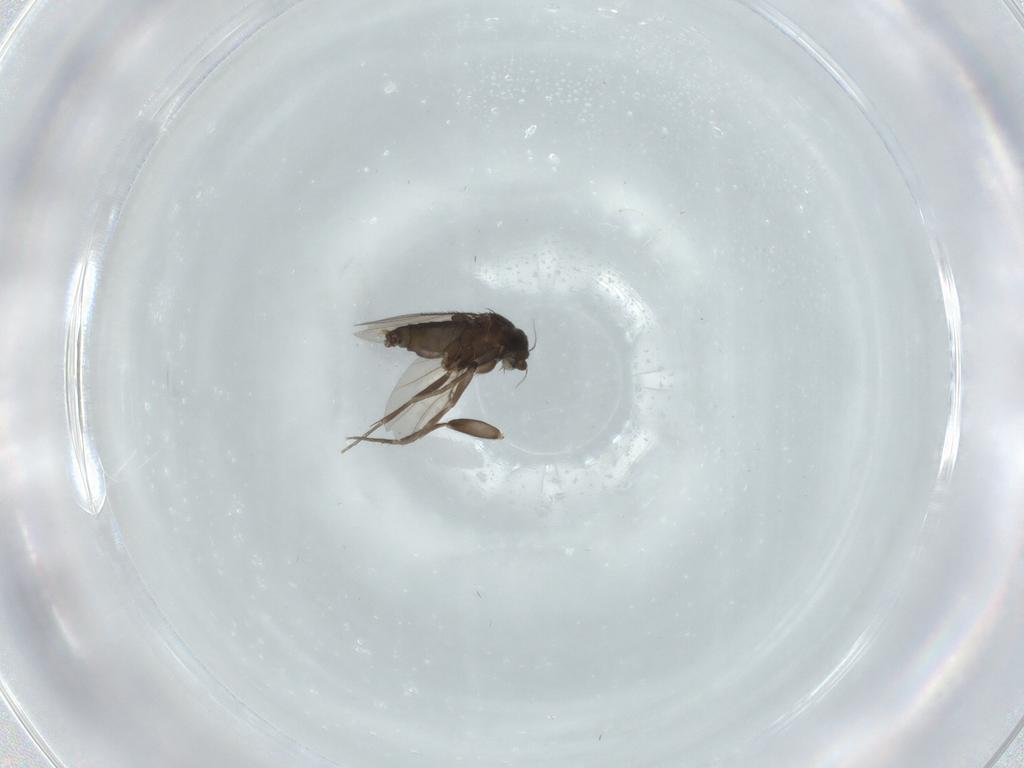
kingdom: Animalia
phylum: Arthropoda
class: Insecta
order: Diptera
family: Cecidomyiidae
